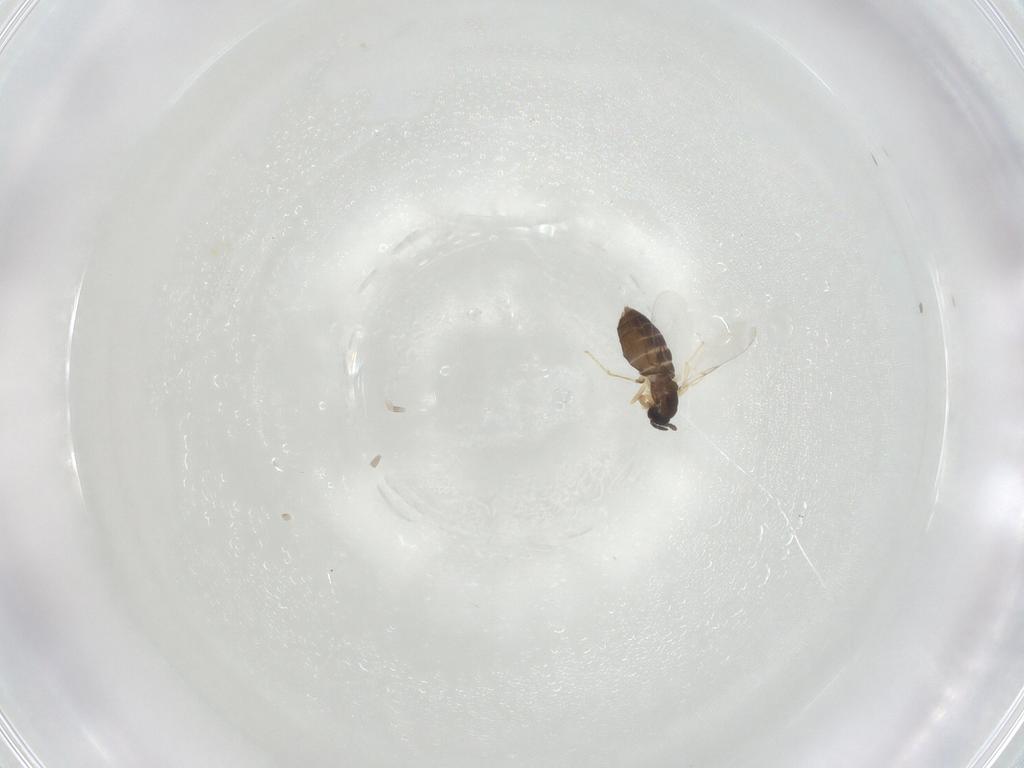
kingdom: Animalia
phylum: Arthropoda
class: Insecta
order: Diptera
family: Scatopsidae
